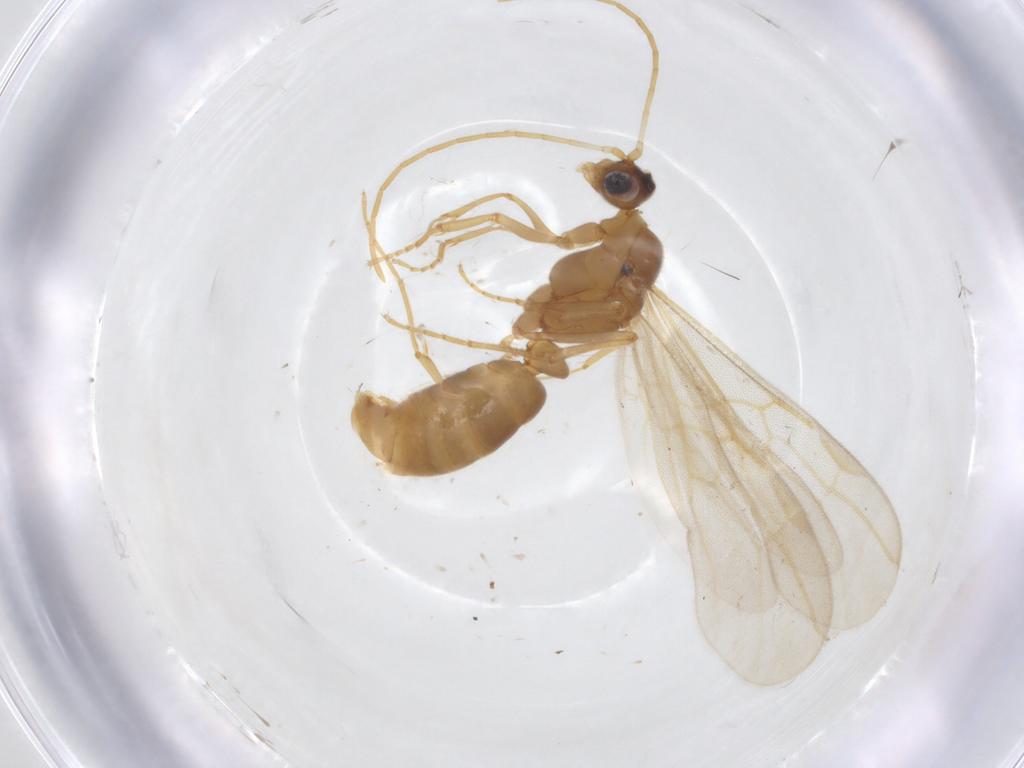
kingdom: Animalia
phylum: Arthropoda
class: Insecta
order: Hymenoptera
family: Formicidae
